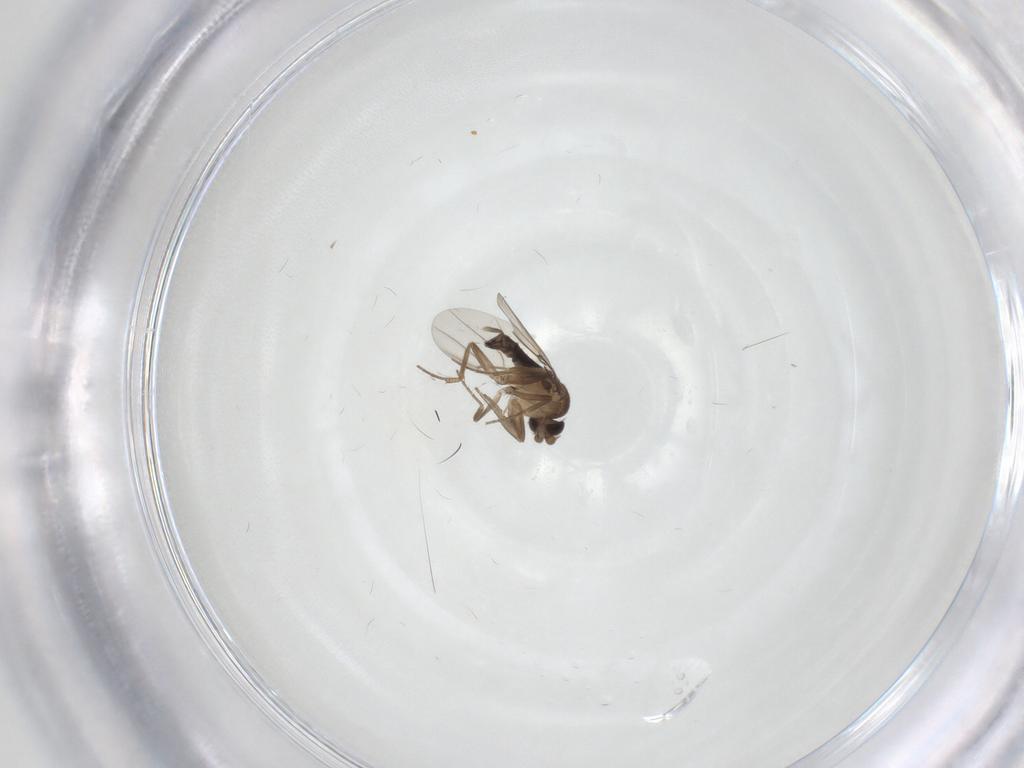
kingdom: Animalia
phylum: Arthropoda
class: Insecta
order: Diptera
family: Phoridae
